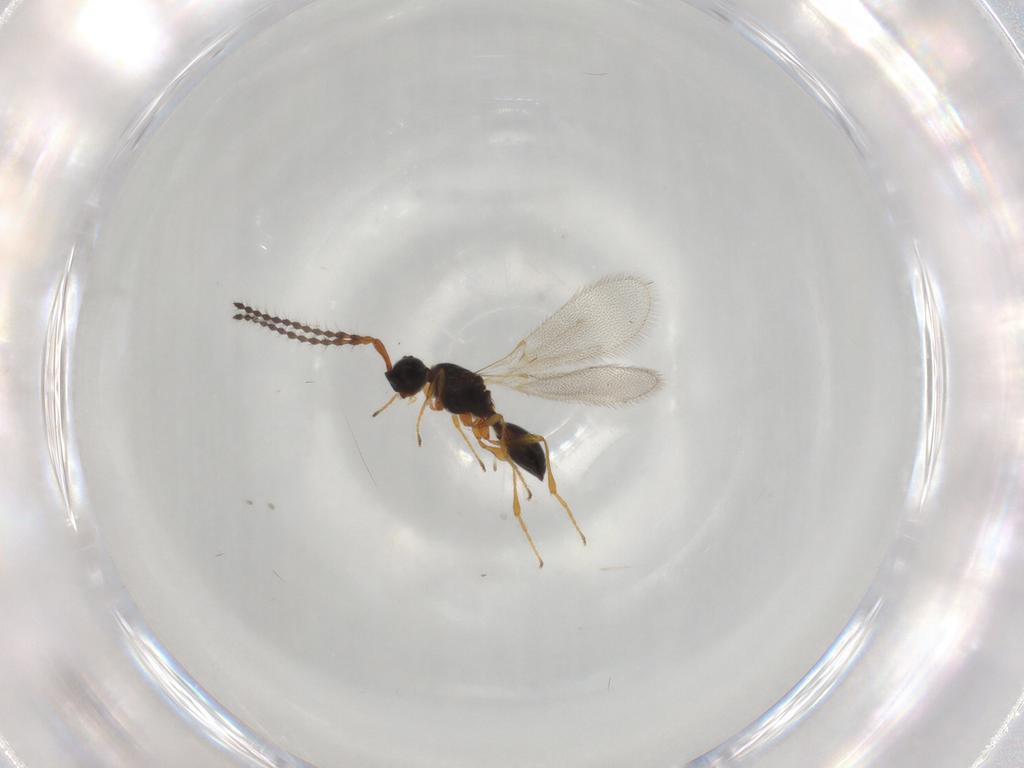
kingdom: Animalia
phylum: Arthropoda
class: Insecta
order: Hymenoptera
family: Diapriidae
